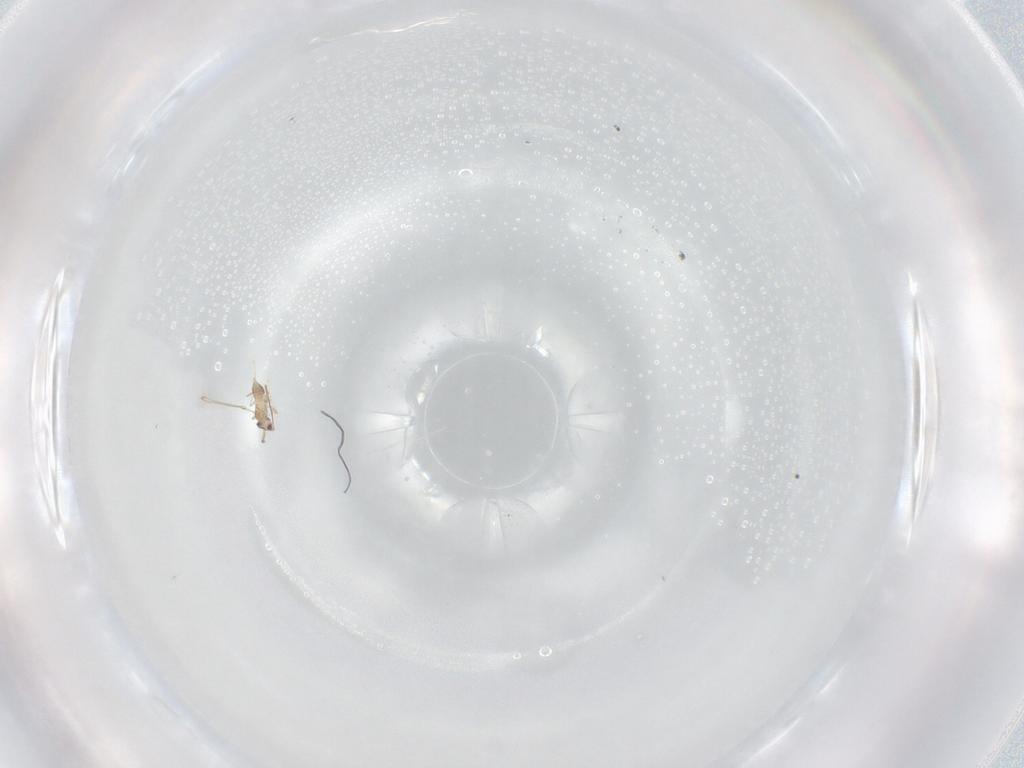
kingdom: Animalia
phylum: Arthropoda
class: Insecta
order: Hymenoptera
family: Mymaridae
